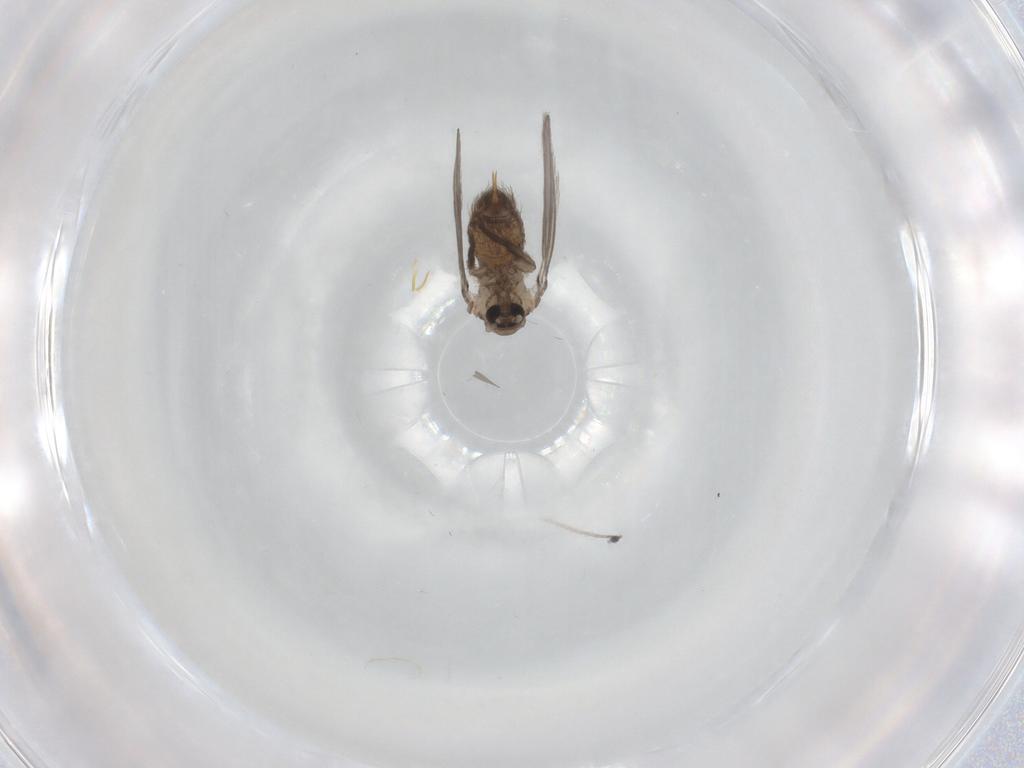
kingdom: Animalia
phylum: Arthropoda
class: Insecta
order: Diptera
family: Psychodidae
